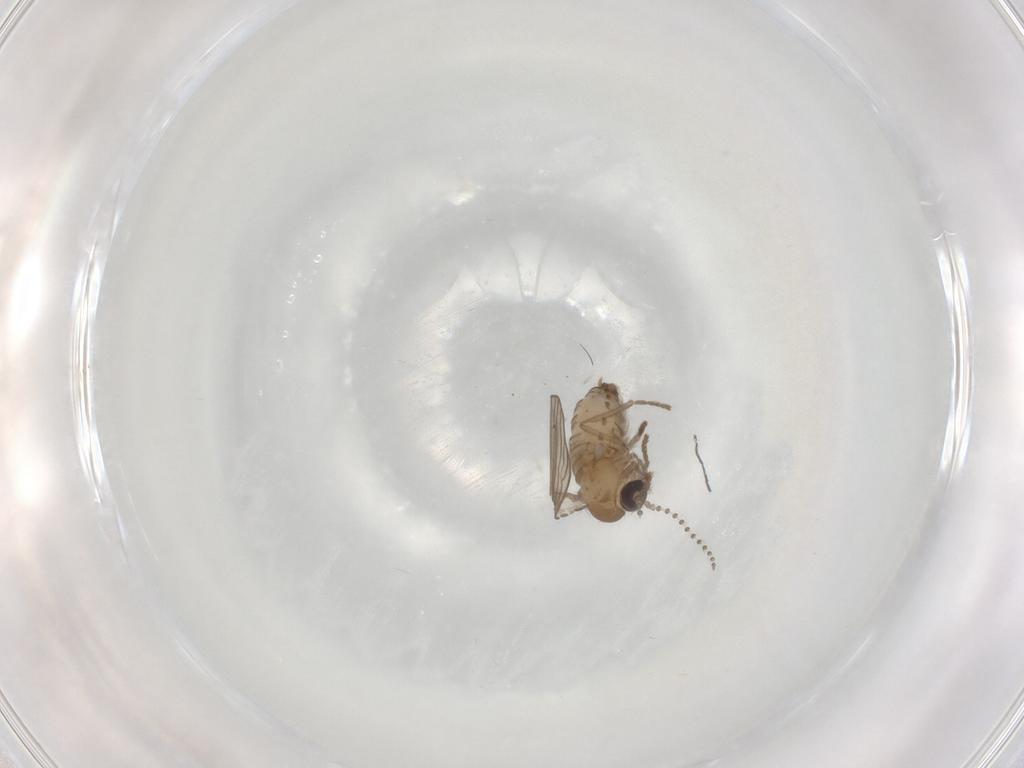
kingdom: Animalia
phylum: Arthropoda
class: Insecta
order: Diptera
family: Psychodidae
